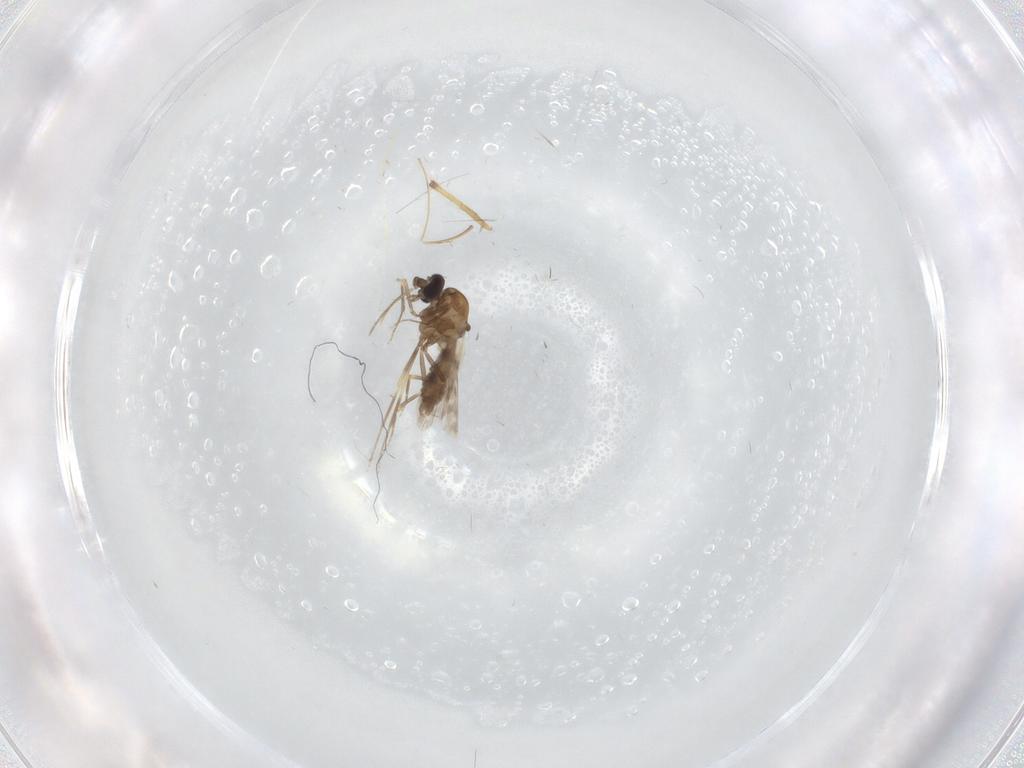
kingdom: Animalia
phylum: Arthropoda
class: Insecta
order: Diptera
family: Ceratopogonidae
